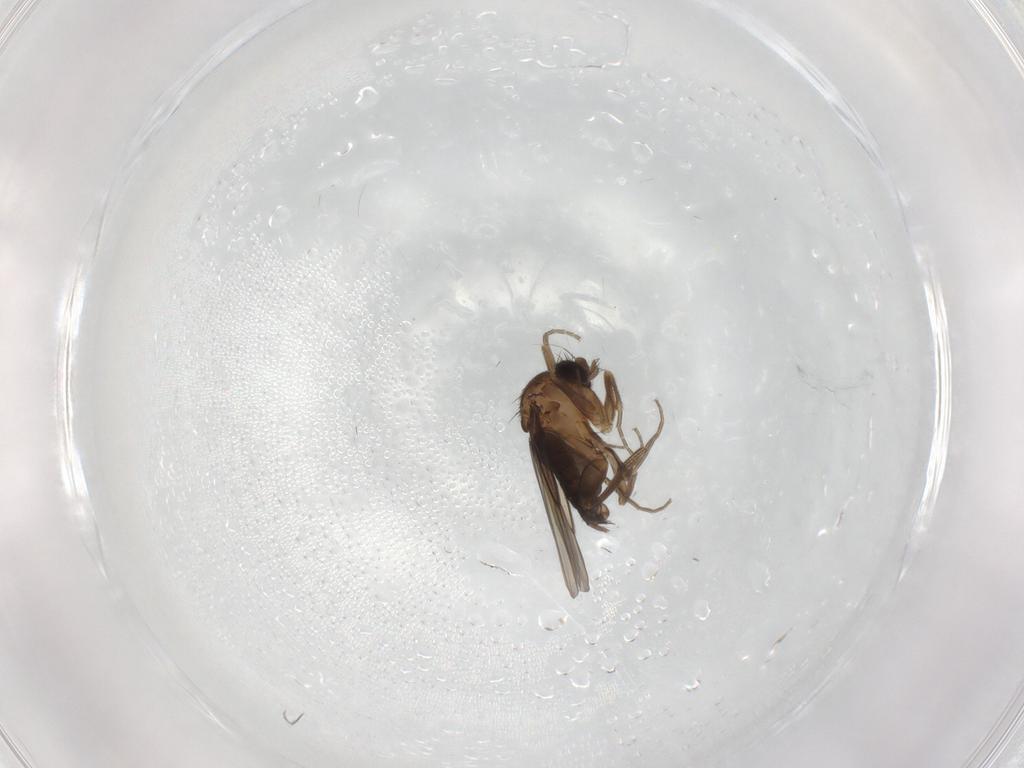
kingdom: Animalia
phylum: Arthropoda
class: Insecta
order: Diptera
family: Phoridae
